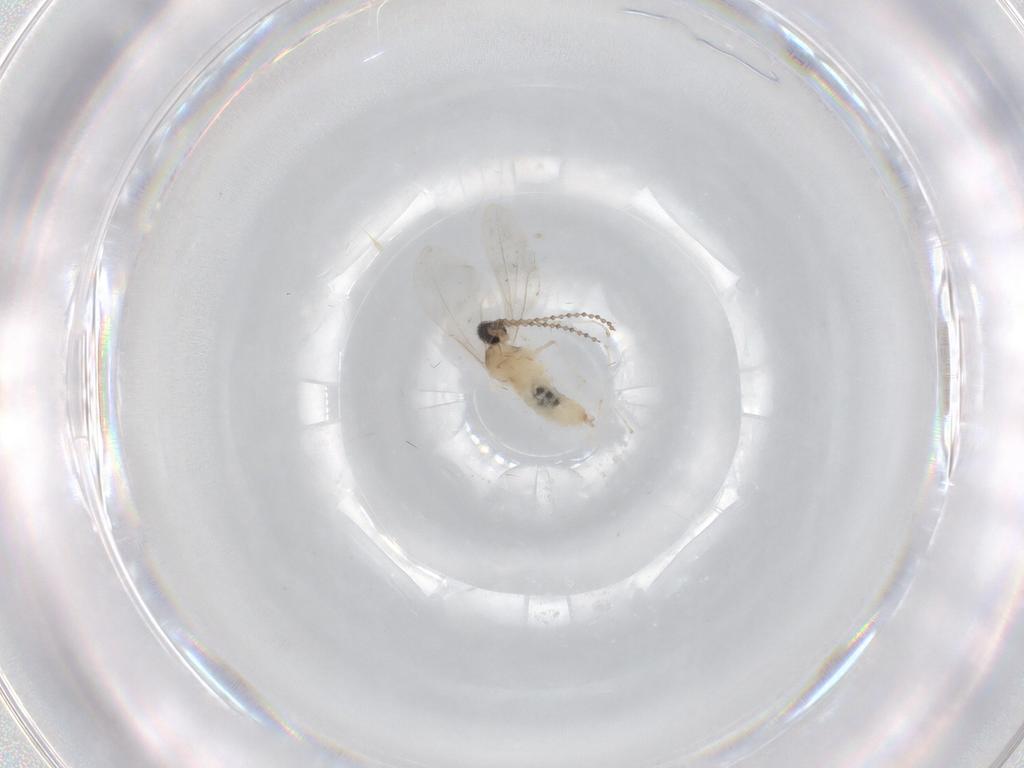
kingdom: Animalia
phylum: Arthropoda
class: Insecta
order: Diptera
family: Cecidomyiidae
